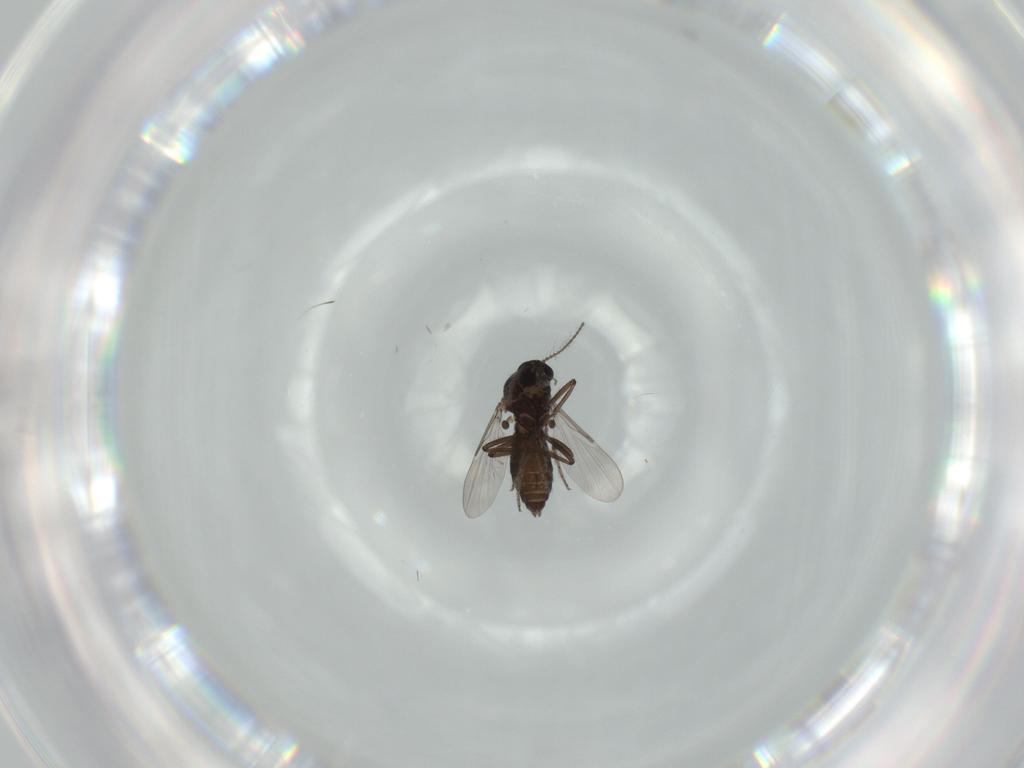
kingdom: Animalia
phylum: Arthropoda
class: Insecta
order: Diptera
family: Ceratopogonidae
